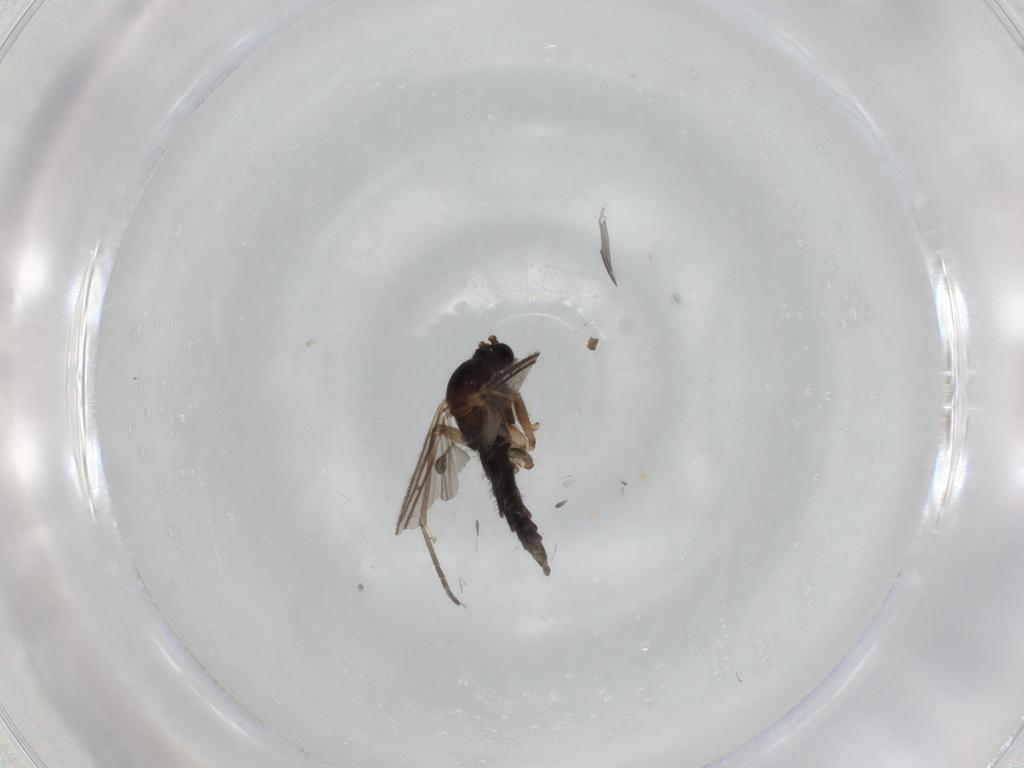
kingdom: Animalia
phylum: Arthropoda
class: Insecta
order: Diptera
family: Sciaridae
